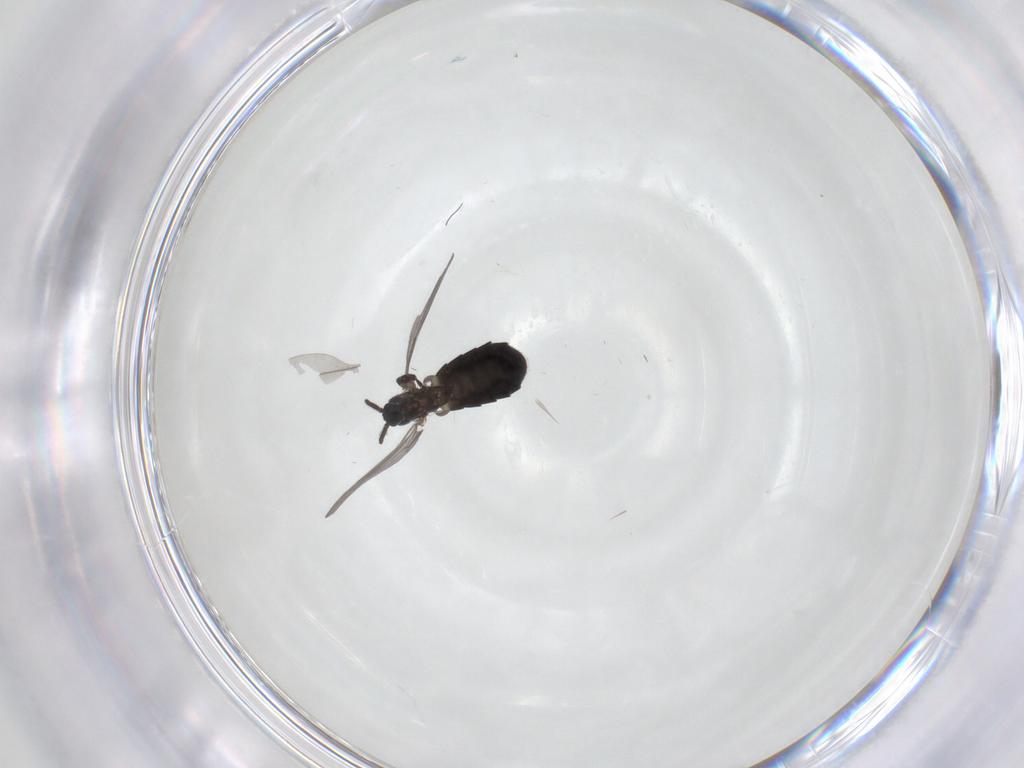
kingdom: Animalia
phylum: Arthropoda
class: Insecta
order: Diptera
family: Scatopsidae
